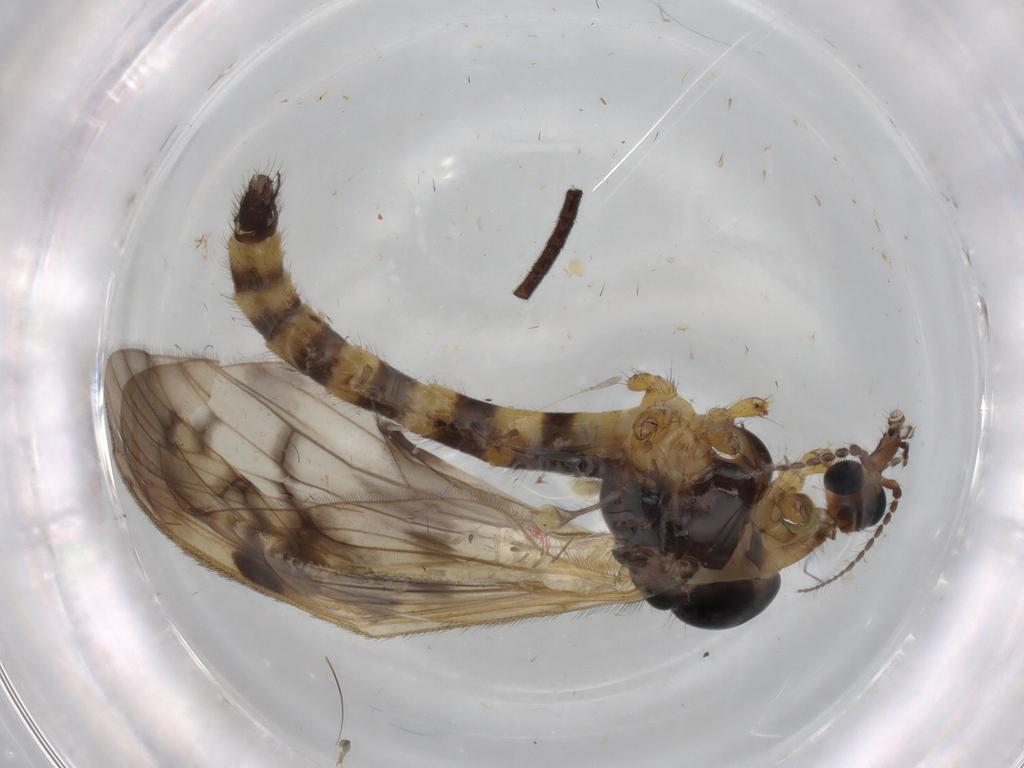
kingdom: Animalia
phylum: Arthropoda
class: Insecta
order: Diptera
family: Limoniidae
